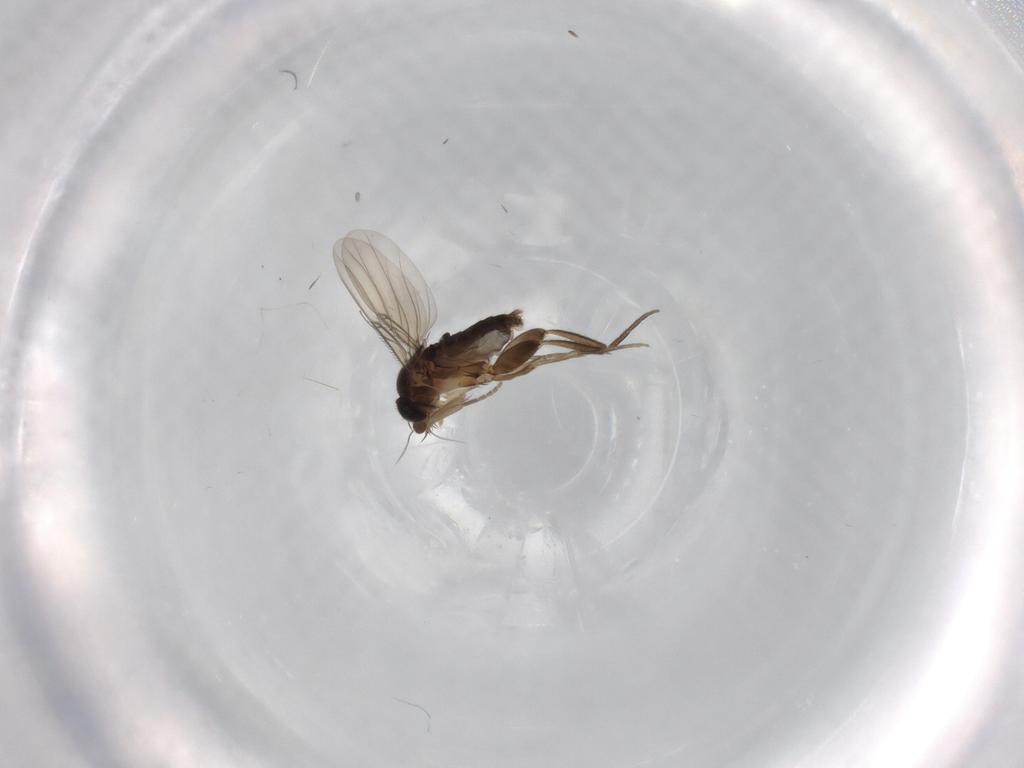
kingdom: Animalia
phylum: Arthropoda
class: Insecta
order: Diptera
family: Phoridae
